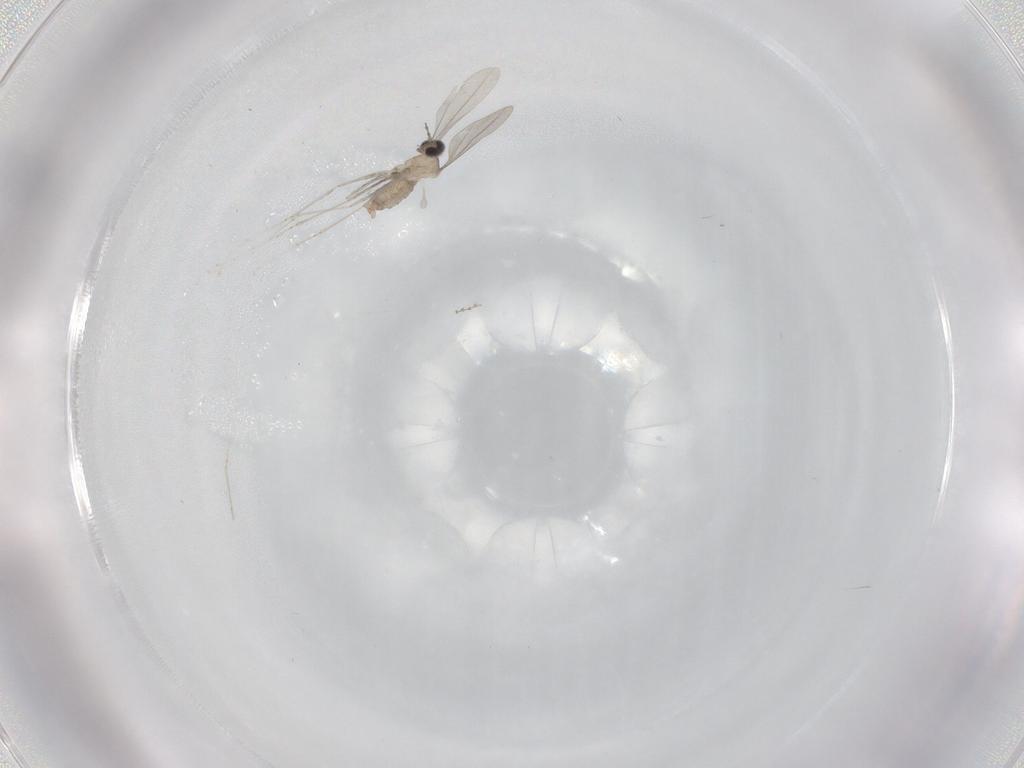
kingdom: Animalia
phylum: Arthropoda
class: Insecta
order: Diptera
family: Cecidomyiidae
